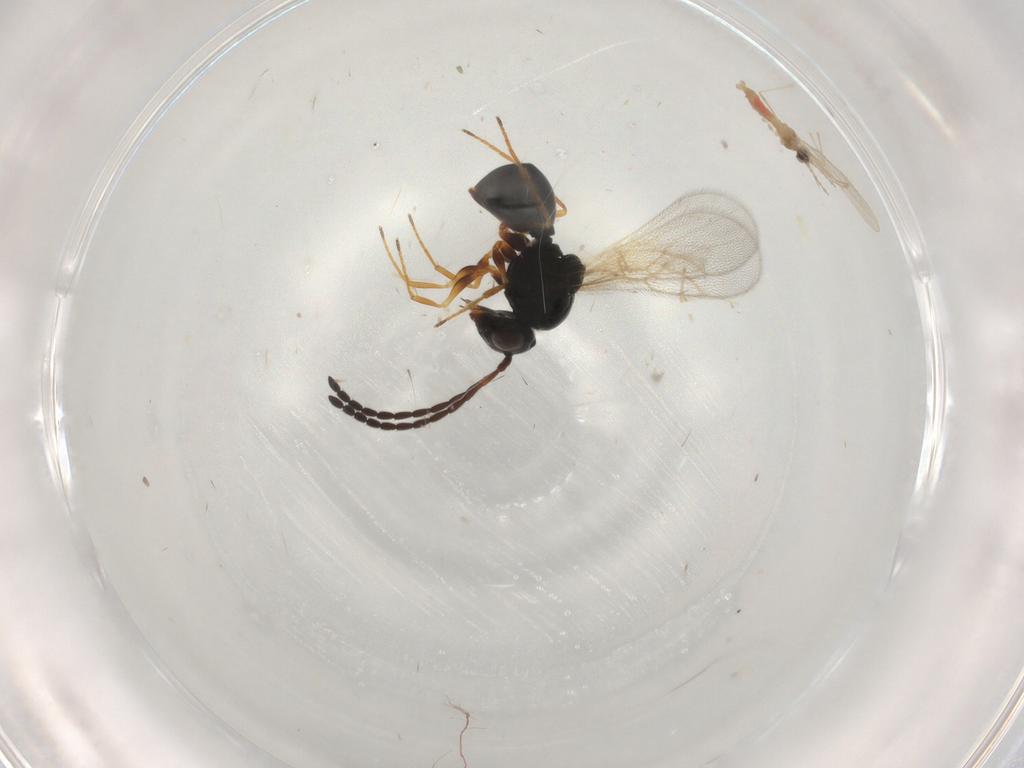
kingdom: Animalia
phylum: Arthropoda
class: Insecta
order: Hymenoptera
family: Figitidae
